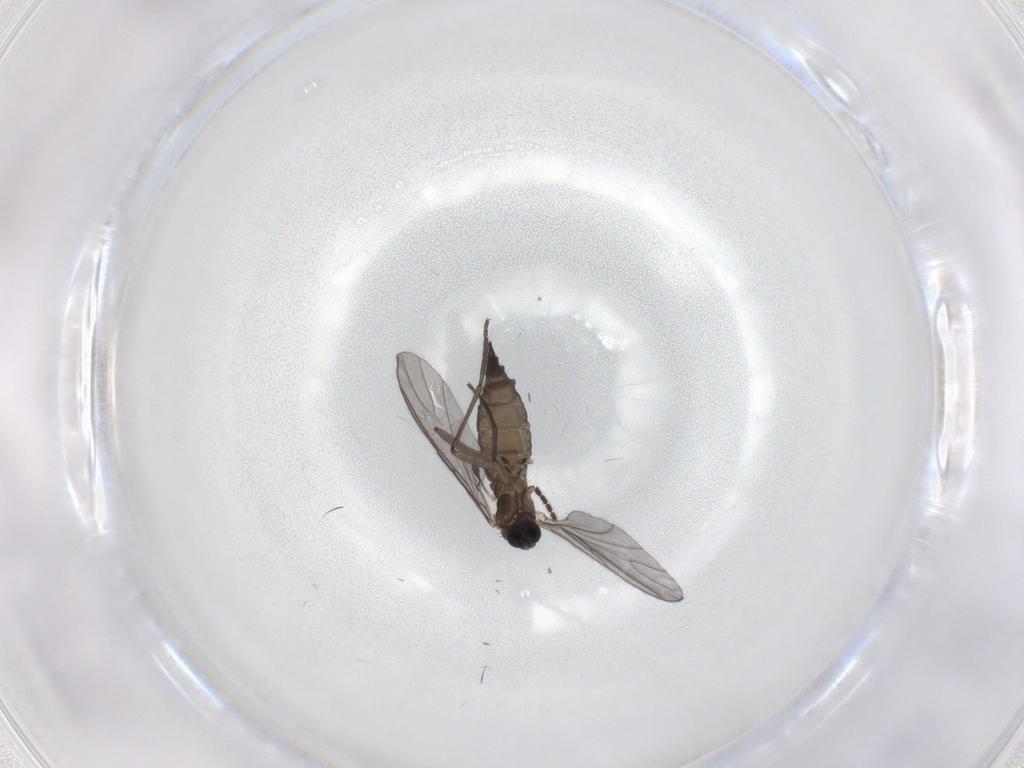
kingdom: Animalia
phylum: Arthropoda
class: Insecta
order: Diptera
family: Sciaridae
